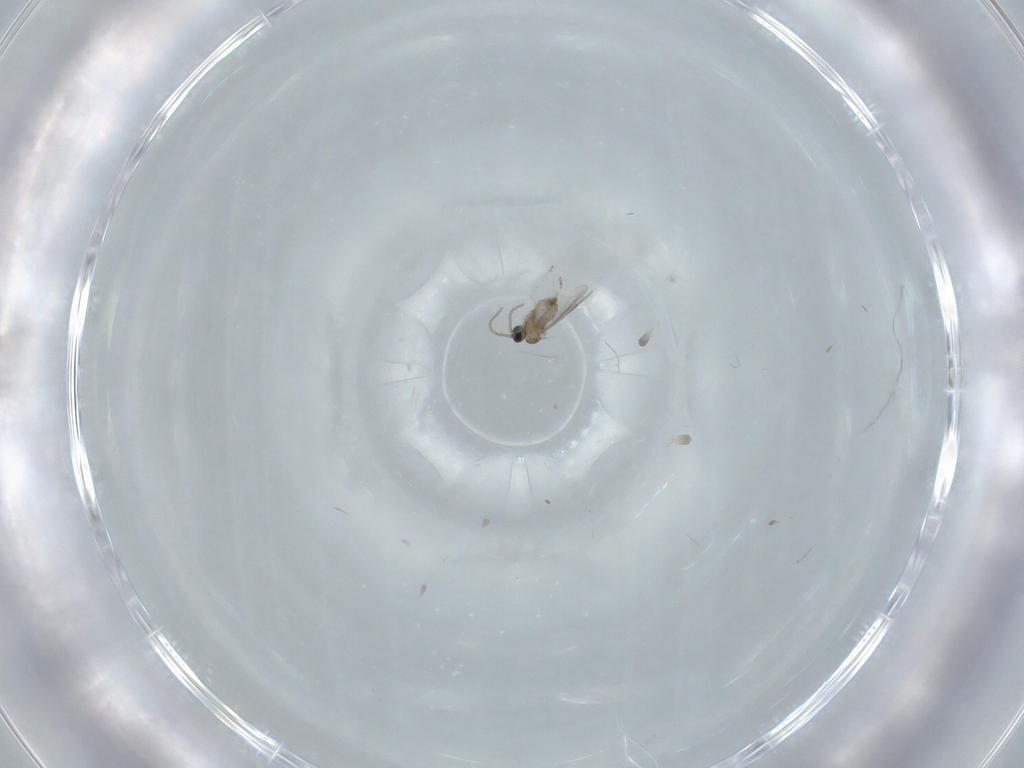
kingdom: Animalia
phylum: Arthropoda
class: Insecta
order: Diptera
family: Cecidomyiidae
